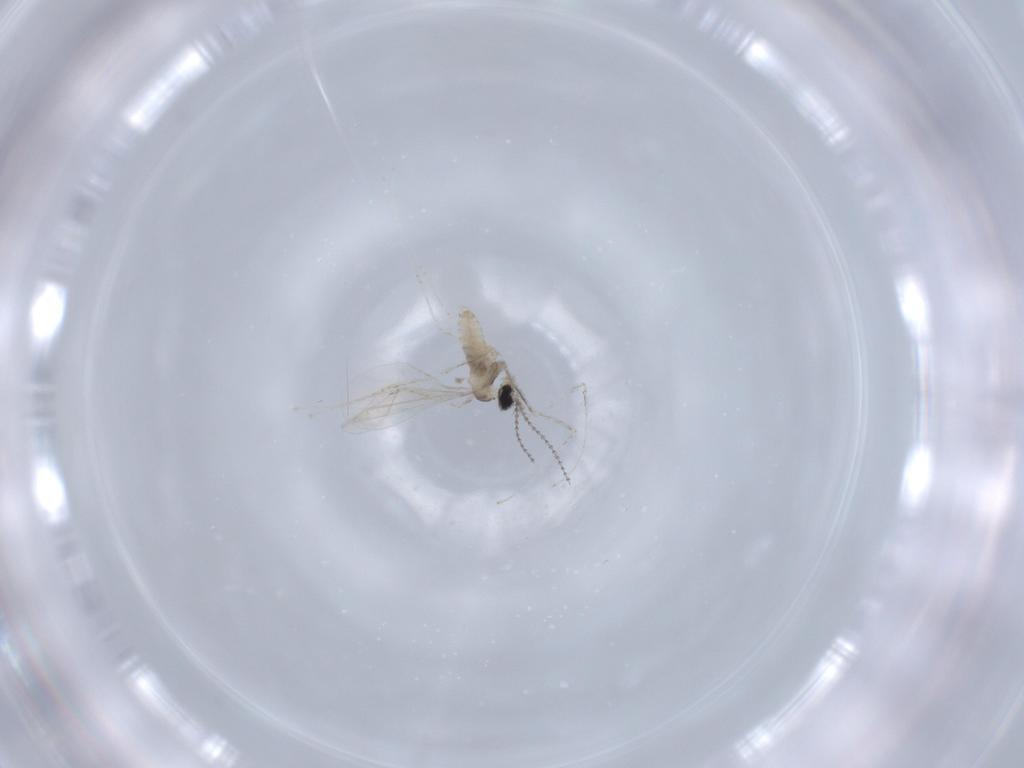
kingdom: Animalia
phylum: Arthropoda
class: Insecta
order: Diptera
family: Cecidomyiidae
